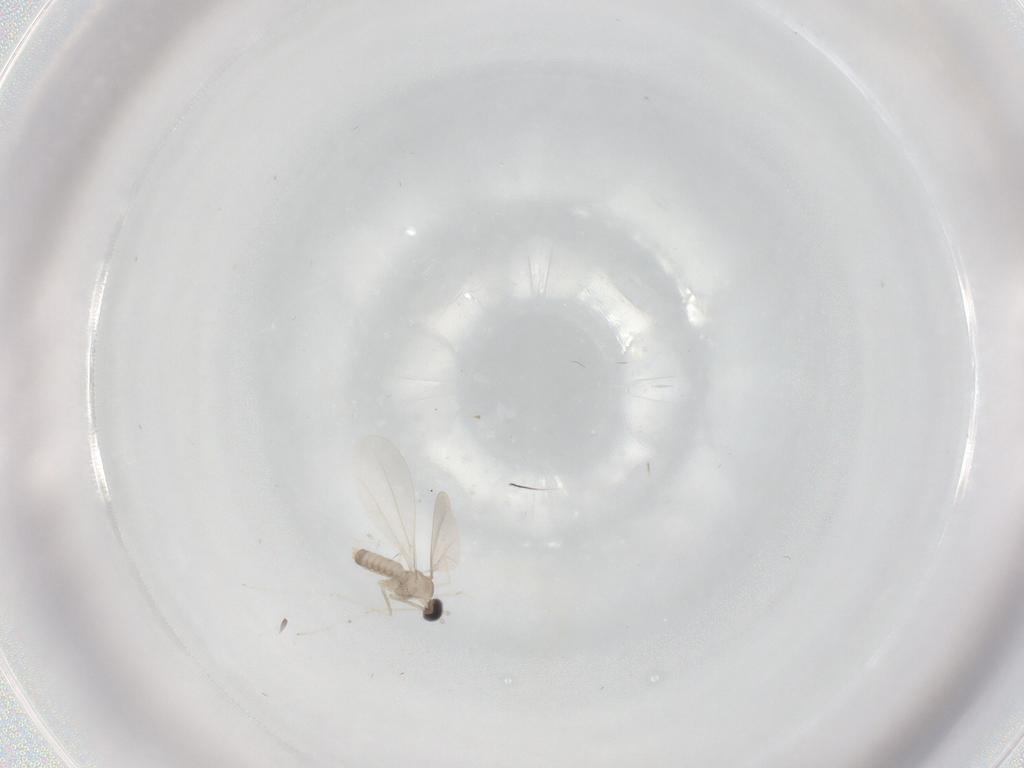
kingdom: Animalia
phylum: Arthropoda
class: Insecta
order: Diptera
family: Cecidomyiidae
